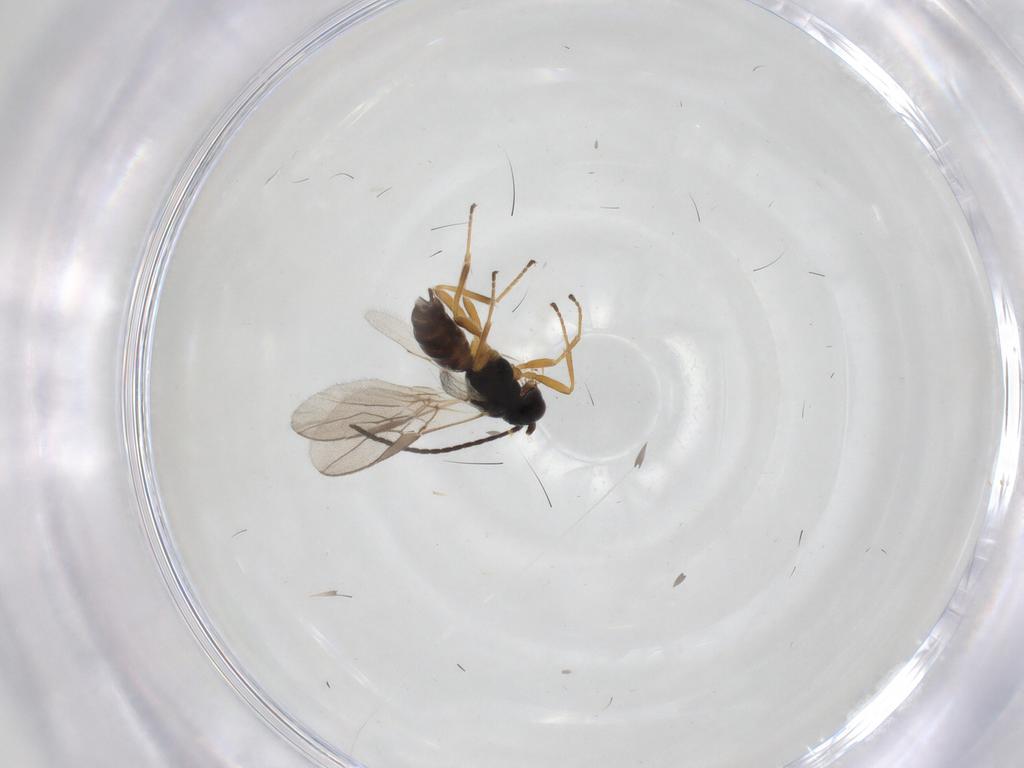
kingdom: Animalia
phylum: Arthropoda
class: Insecta
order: Hymenoptera
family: Braconidae
